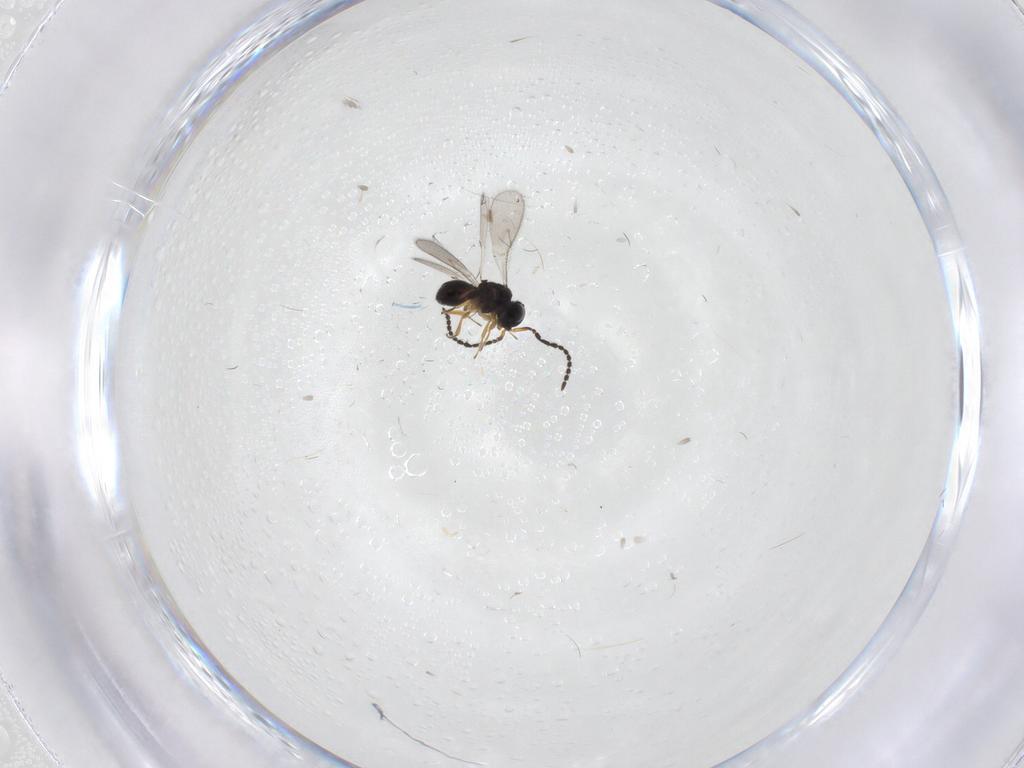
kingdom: Animalia
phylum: Arthropoda
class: Insecta
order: Hymenoptera
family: Scelionidae
